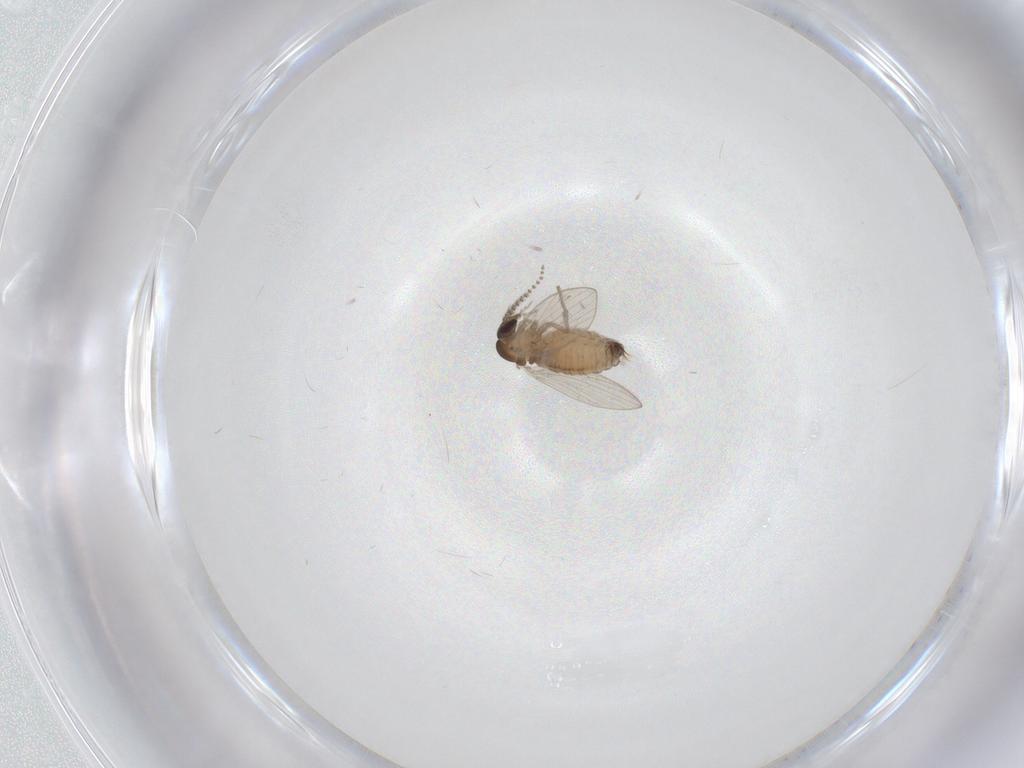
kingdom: Animalia
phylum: Arthropoda
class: Insecta
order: Diptera
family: Psychodidae
